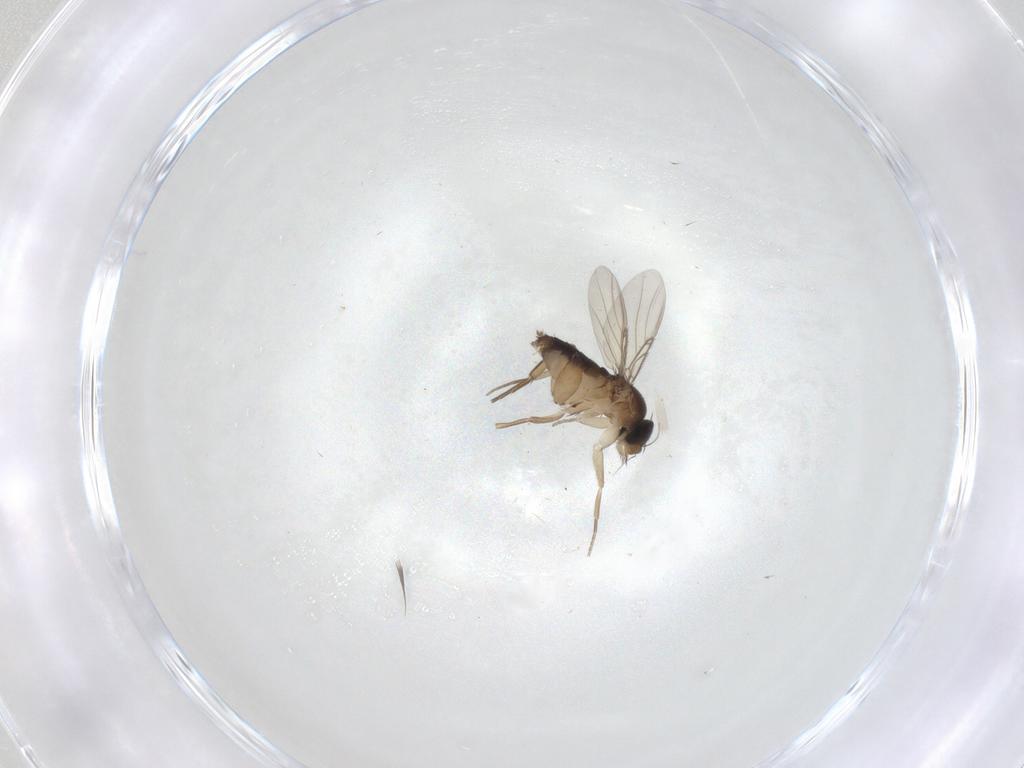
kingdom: Animalia
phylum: Arthropoda
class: Insecta
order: Diptera
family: Phoridae
